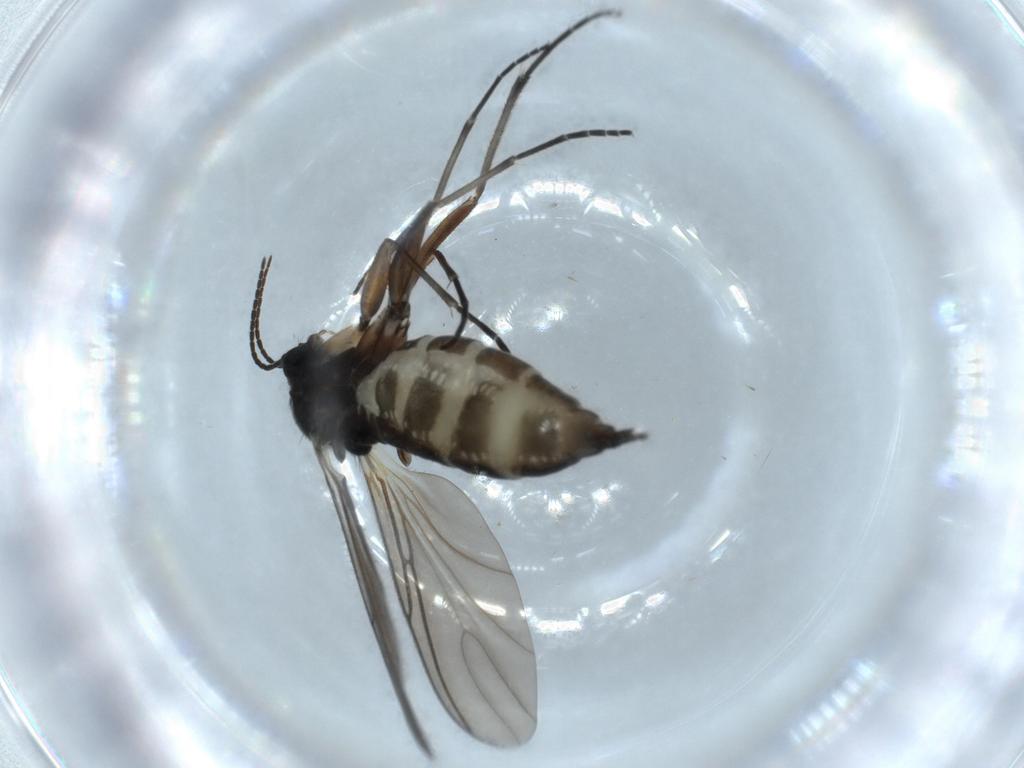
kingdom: Animalia
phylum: Arthropoda
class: Insecta
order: Diptera
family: Sciaridae
